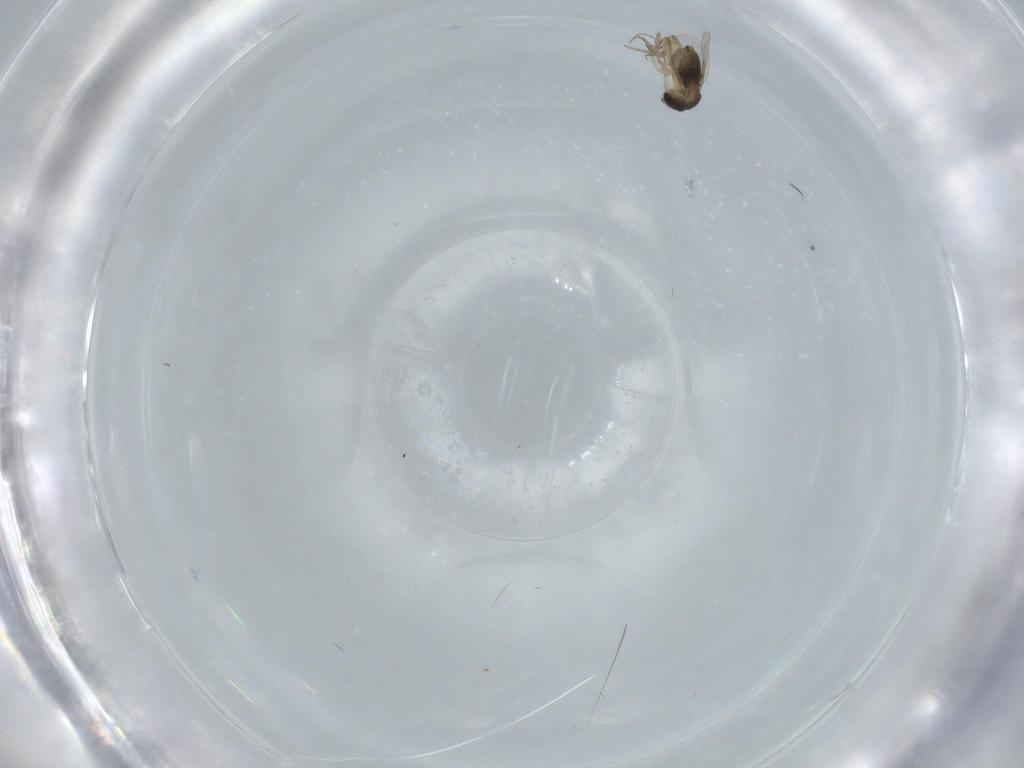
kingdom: Animalia
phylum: Arthropoda
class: Insecta
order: Diptera
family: Phoridae
